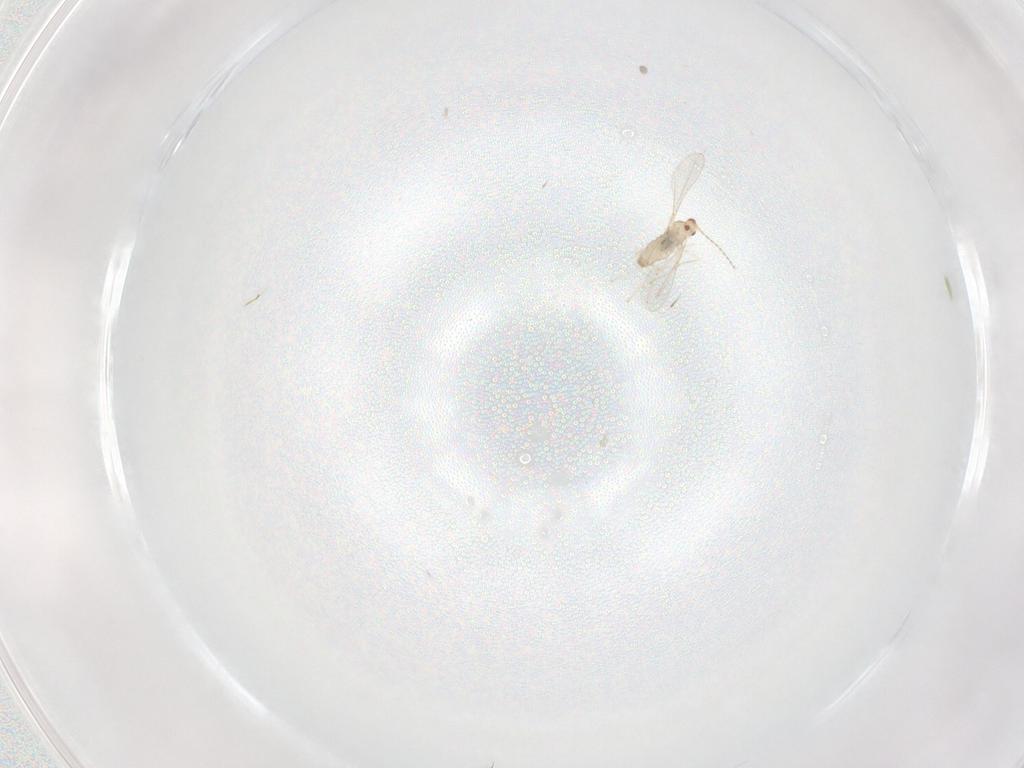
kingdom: Animalia
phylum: Arthropoda
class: Insecta
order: Diptera
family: Cecidomyiidae
